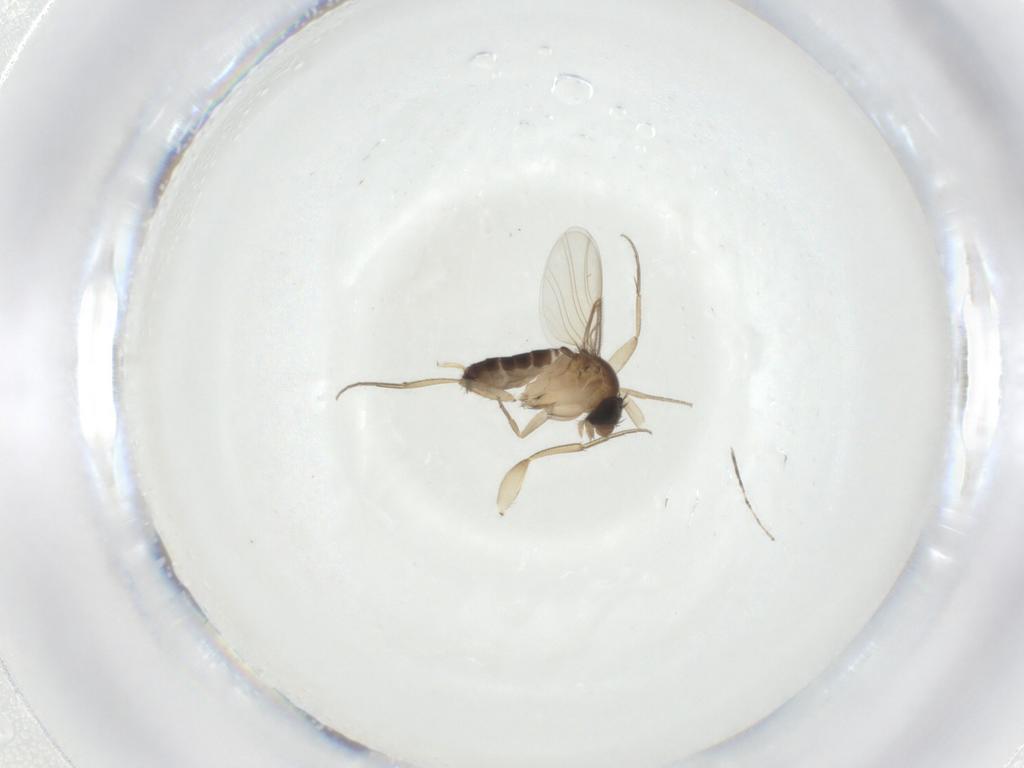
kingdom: Animalia
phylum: Arthropoda
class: Insecta
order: Diptera
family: Phoridae
